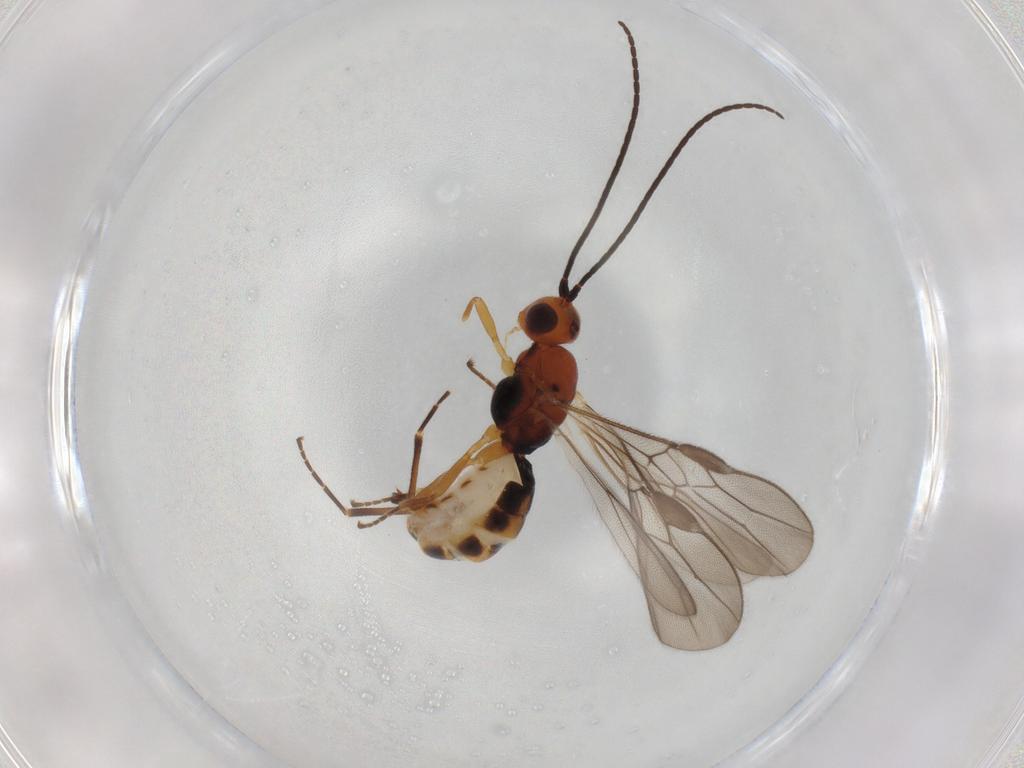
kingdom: Animalia
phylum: Arthropoda
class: Insecta
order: Hymenoptera
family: Braconidae
